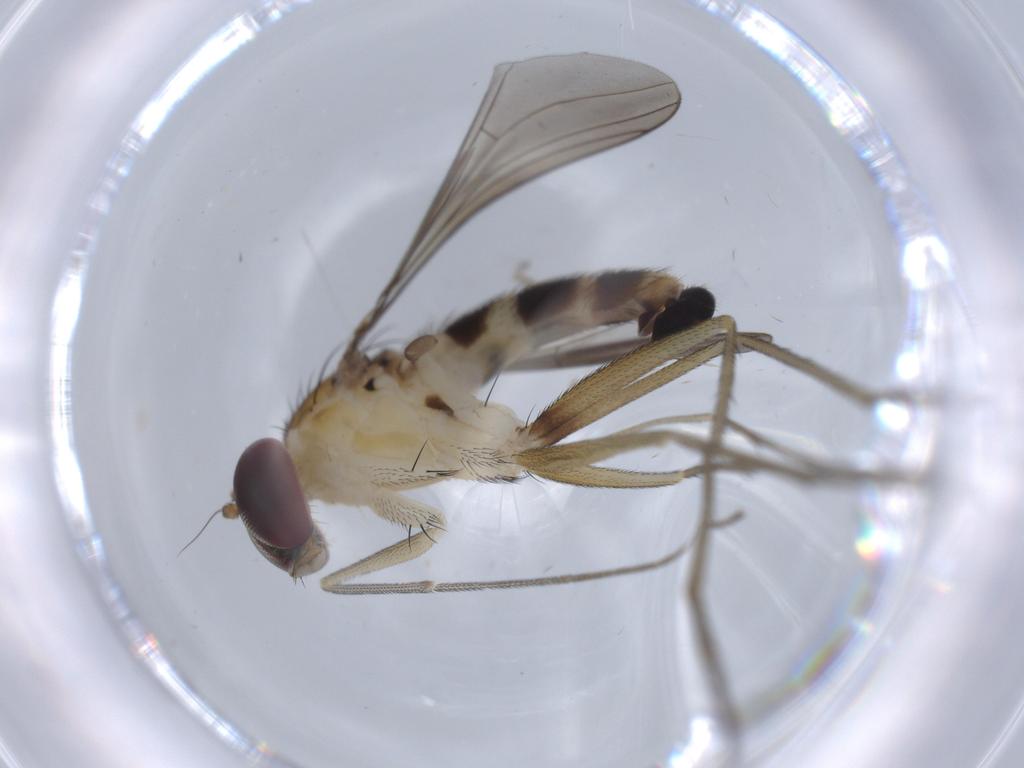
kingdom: Animalia
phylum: Arthropoda
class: Insecta
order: Diptera
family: Dolichopodidae
